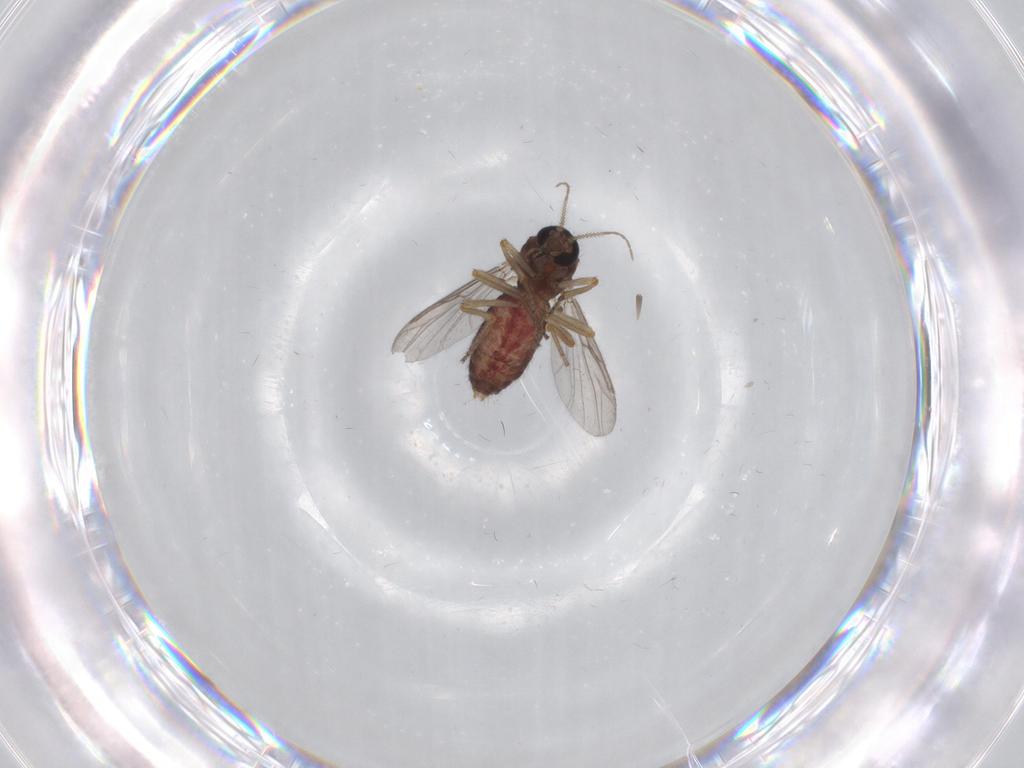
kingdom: Animalia
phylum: Arthropoda
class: Insecta
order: Diptera
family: Ceratopogonidae
